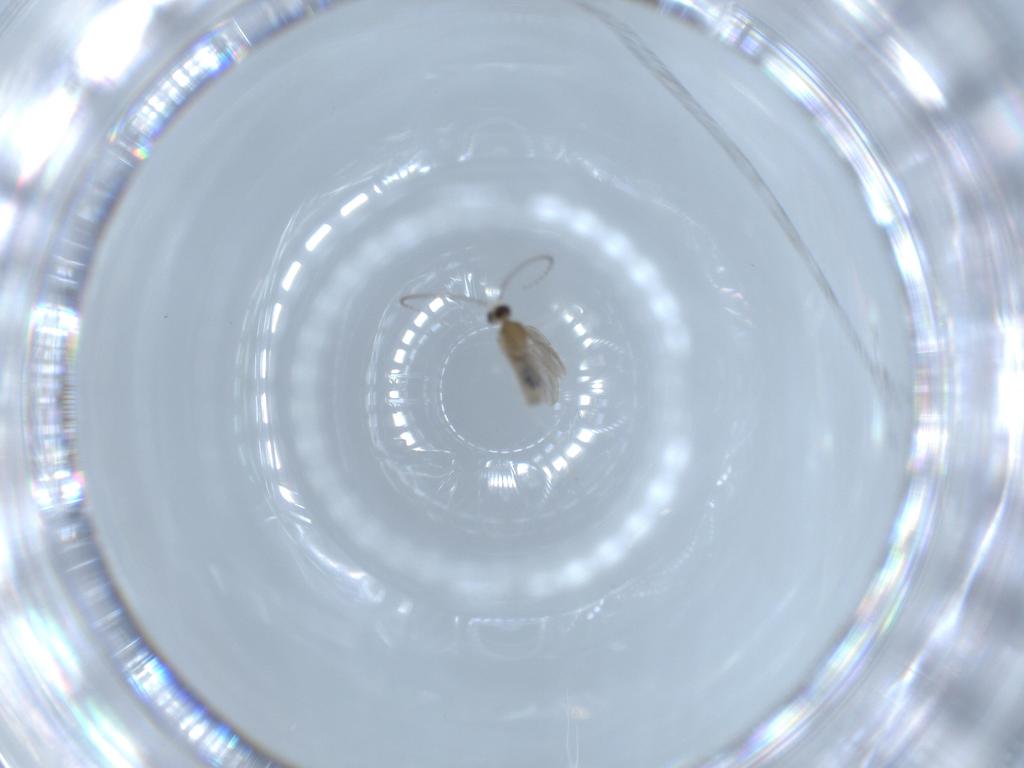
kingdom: Animalia
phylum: Arthropoda
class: Insecta
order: Diptera
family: Cecidomyiidae
